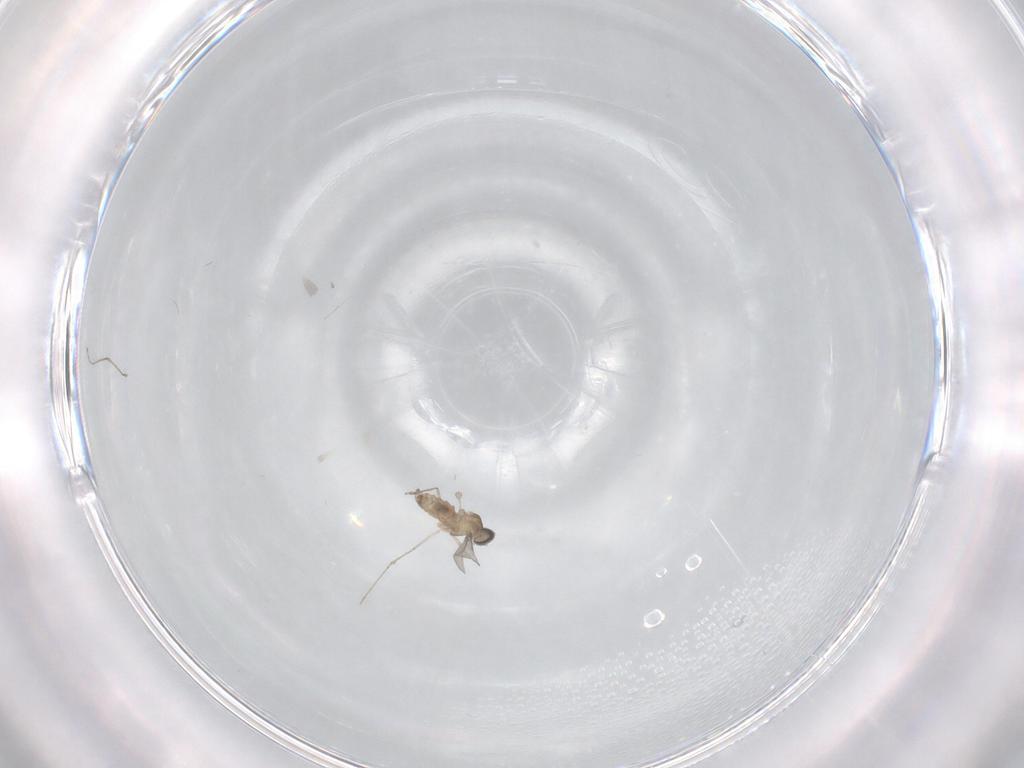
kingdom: Animalia
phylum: Arthropoda
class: Insecta
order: Diptera
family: Cecidomyiidae
